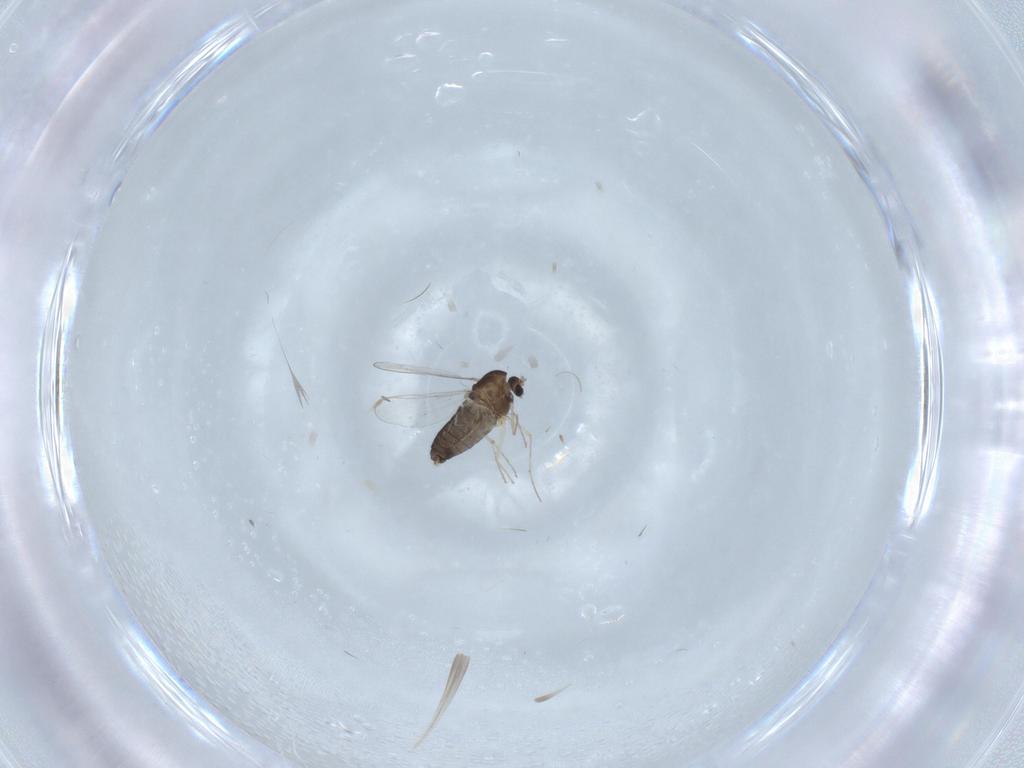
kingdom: Animalia
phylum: Arthropoda
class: Insecta
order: Diptera
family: Chironomidae
